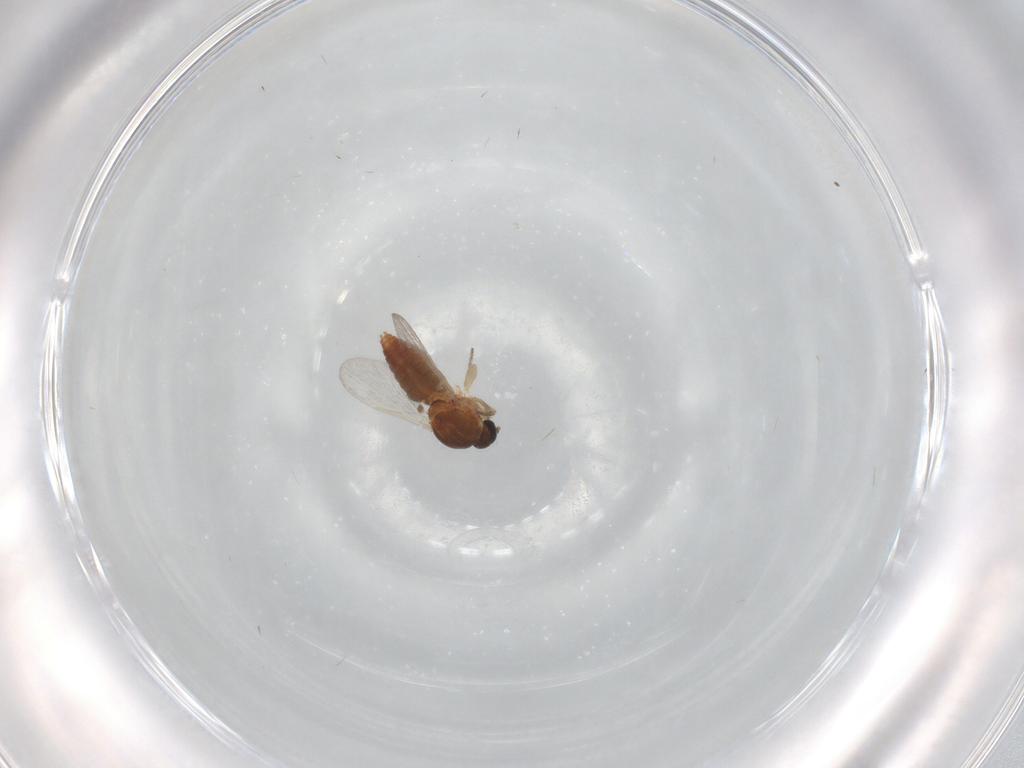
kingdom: Animalia
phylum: Arthropoda
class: Insecta
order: Diptera
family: Ceratopogonidae
